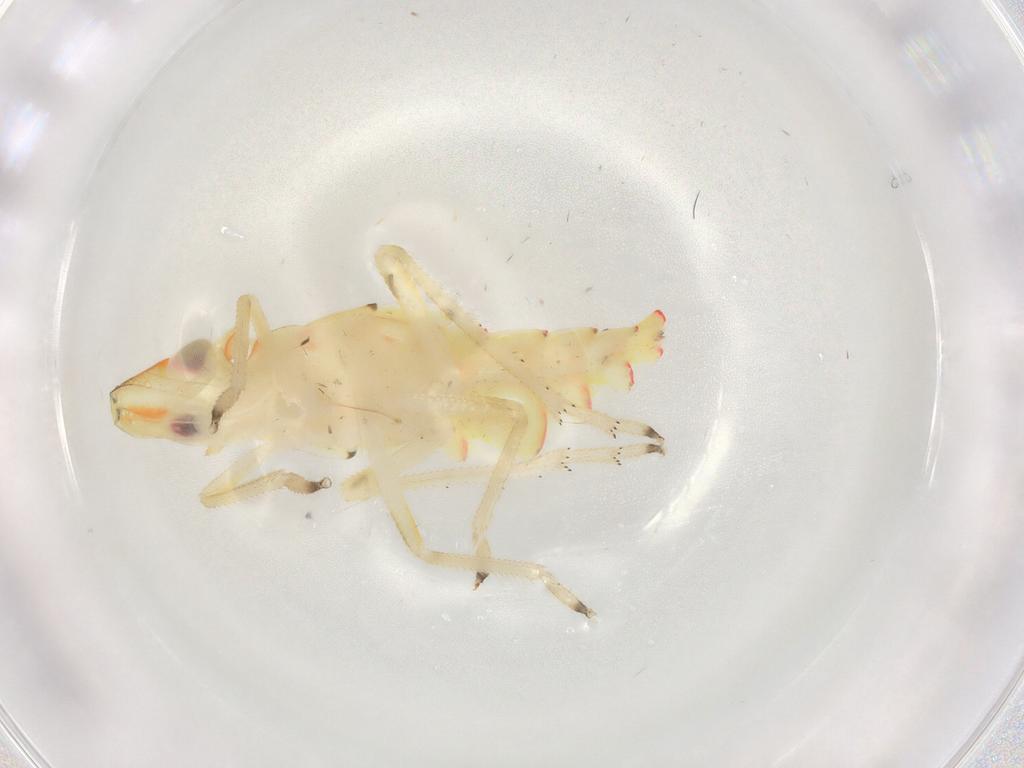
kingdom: Animalia
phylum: Arthropoda
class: Insecta
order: Hemiptera
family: Tropiduchidae
